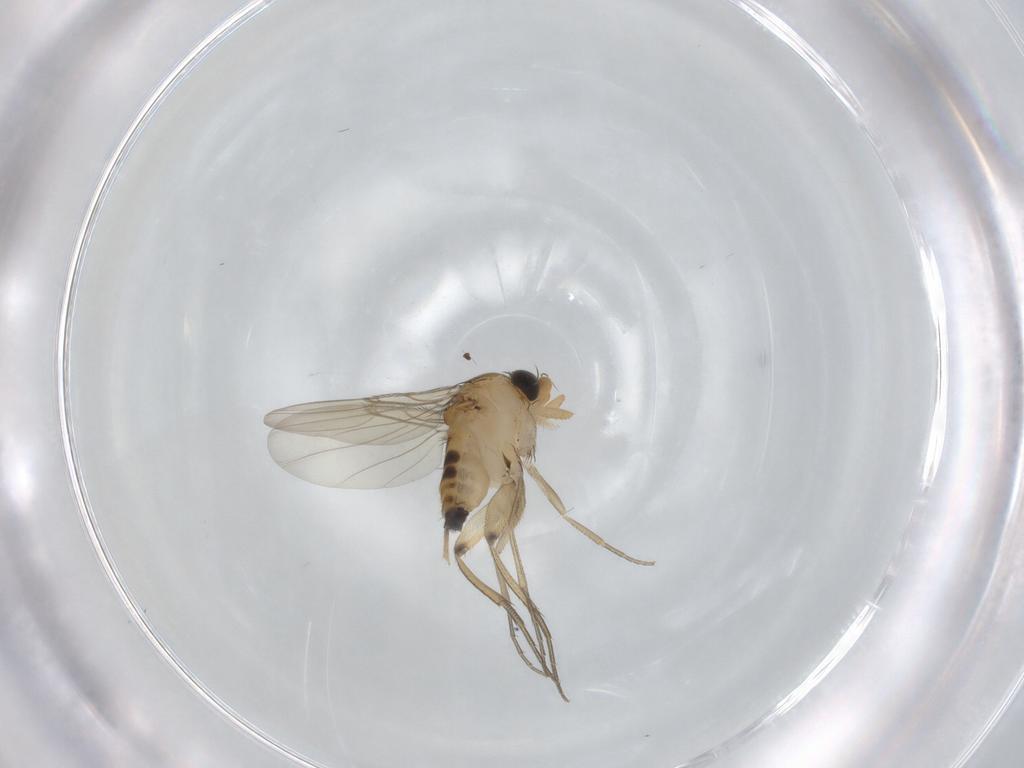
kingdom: Animalia
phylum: Arthropoda
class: Insecta
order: Diptera
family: Phoridae
